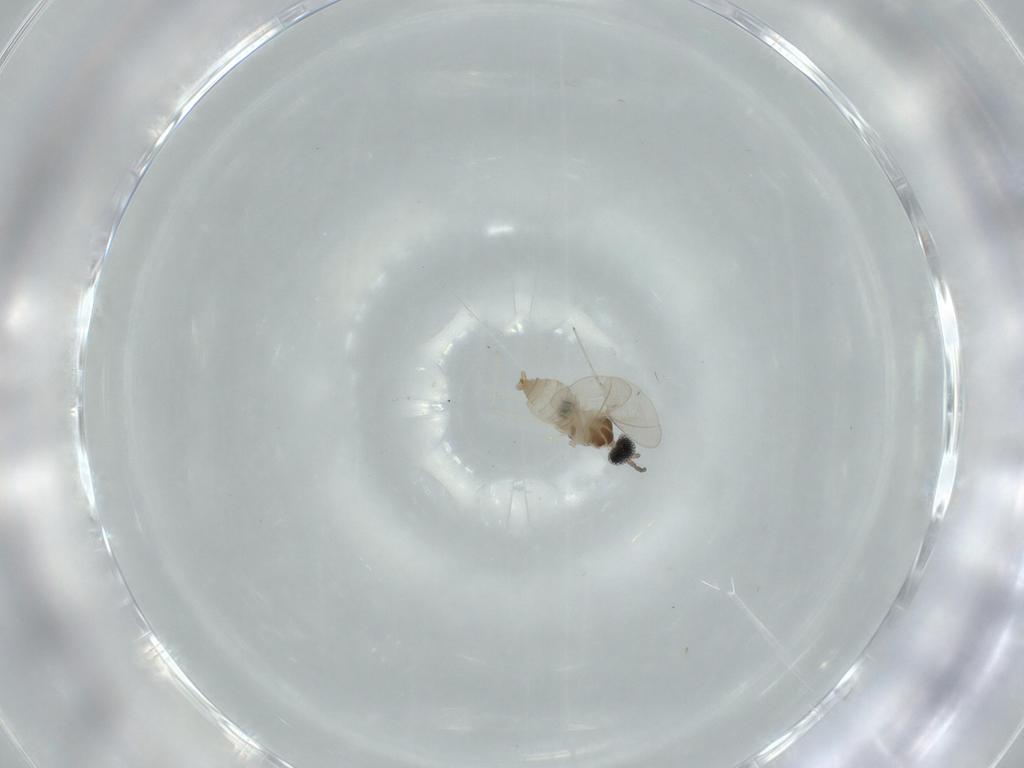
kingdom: Animalia
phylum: Arthropoda
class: Insecta
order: Diptera
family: Cecidomyiidae
